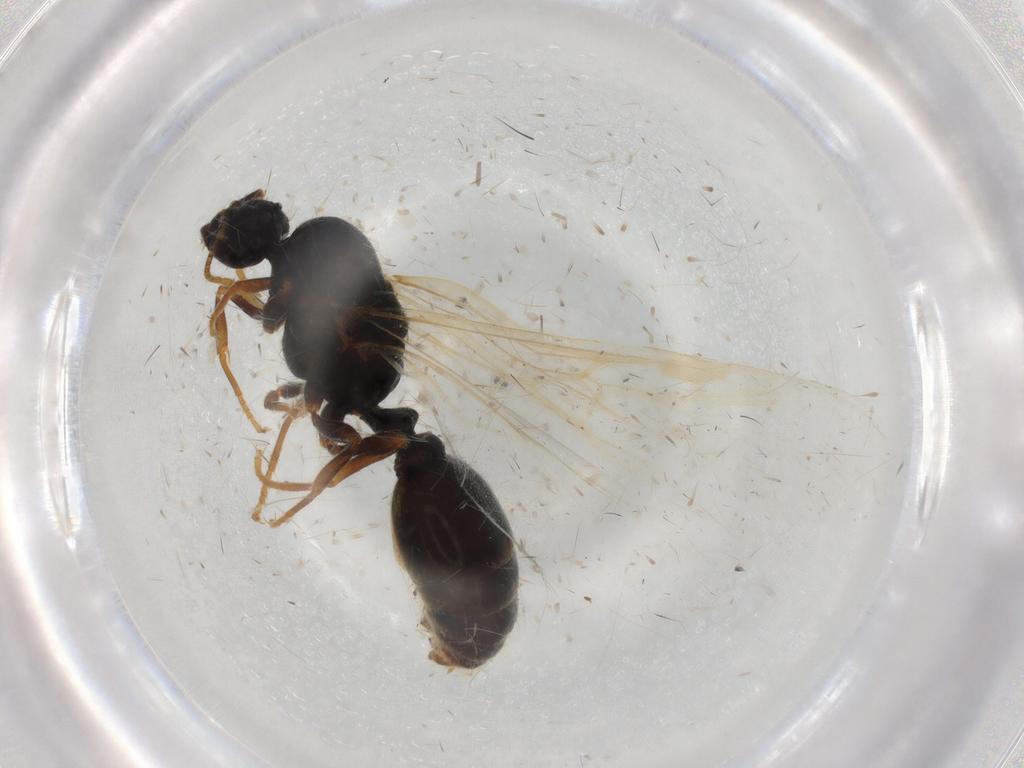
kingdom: Animalia
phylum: Arthropoda
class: Insecta
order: Hymenoptera
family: Formicidae
